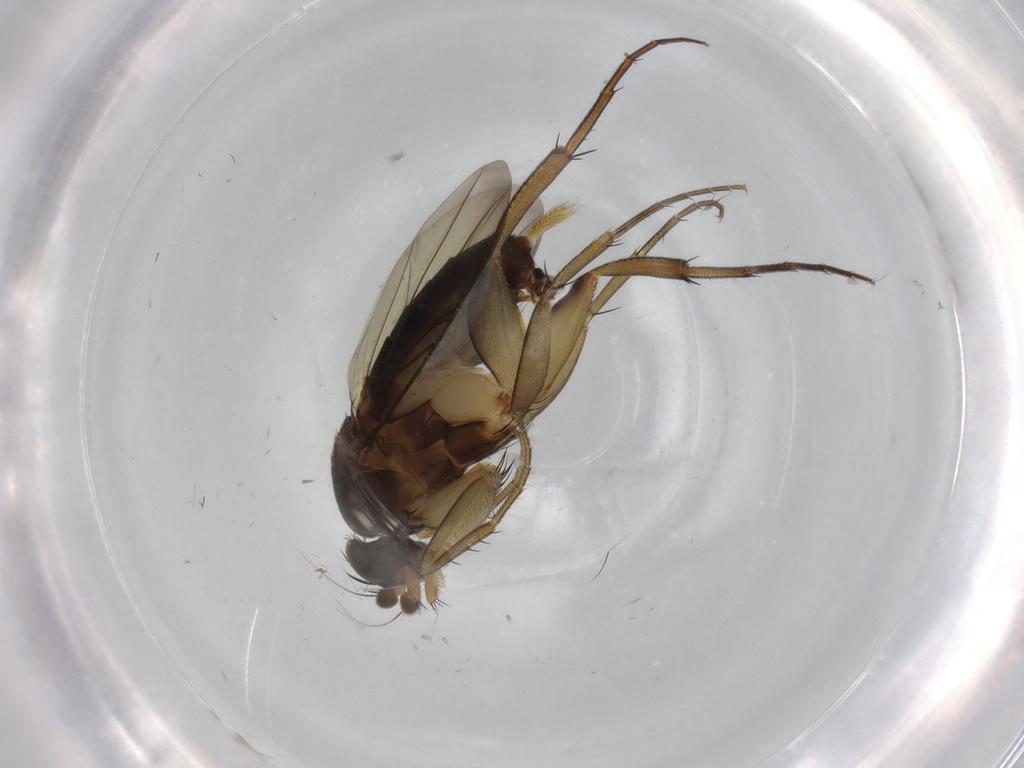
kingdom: Animalia
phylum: Arthropoda
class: Insecta
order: Diptera
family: Phoridae
